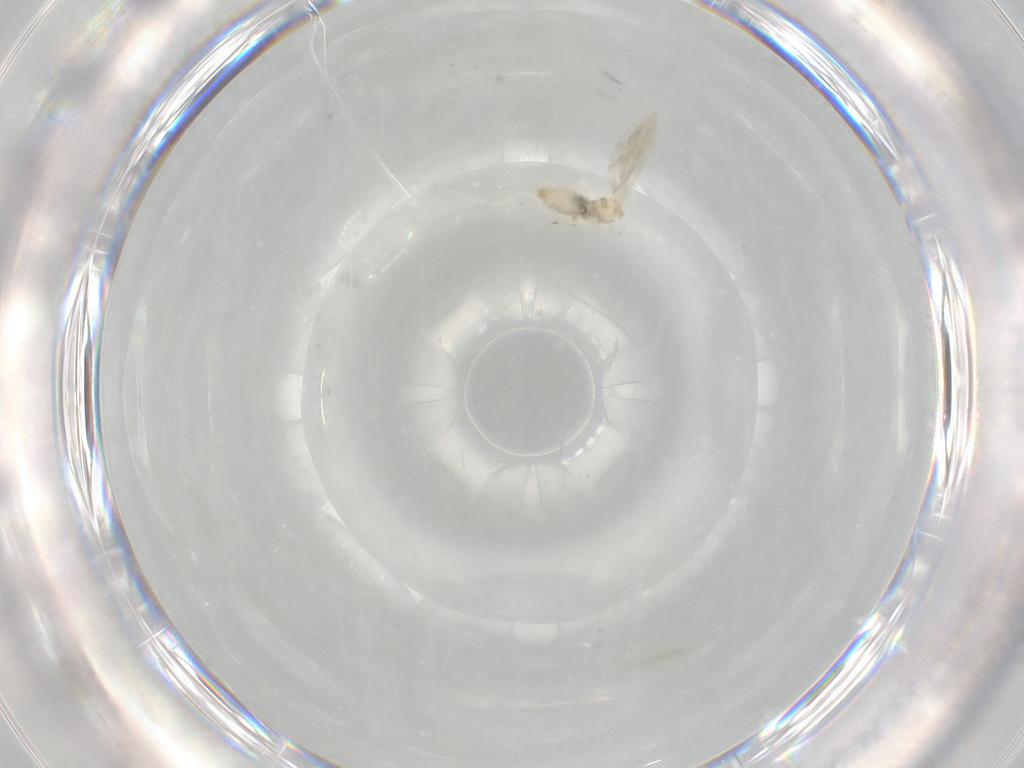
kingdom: Animalia
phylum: Arthropoda
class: Insecta
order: Diptera
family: Cecidomyiidae
